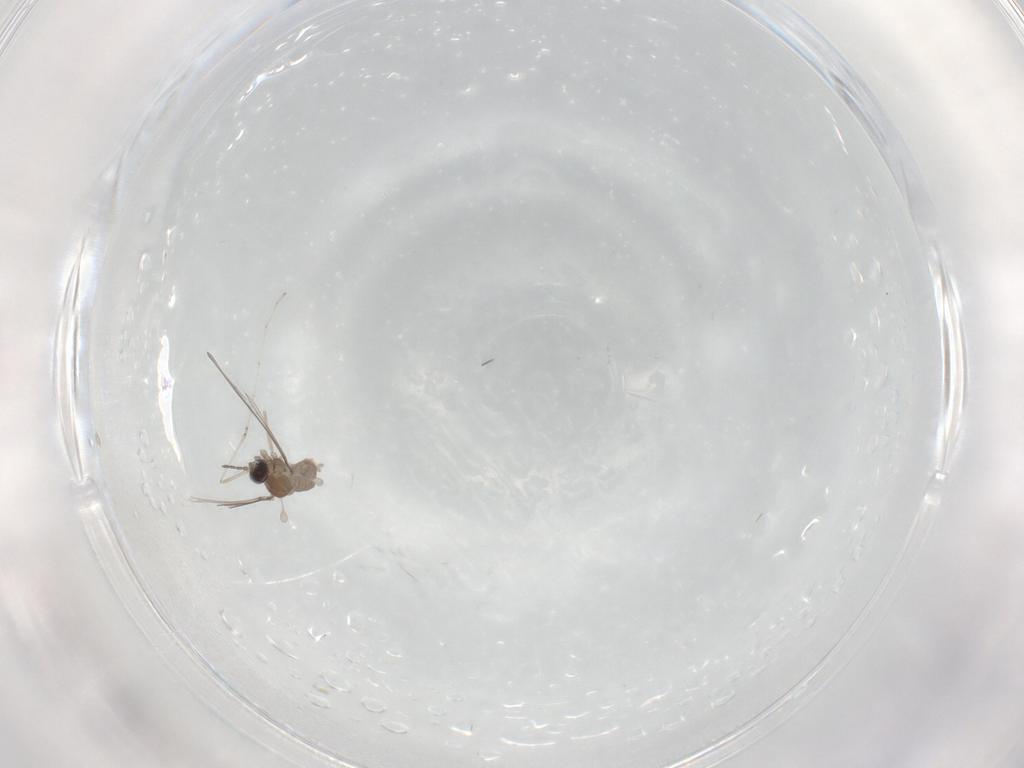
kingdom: Animalia
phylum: Arthropoda
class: Insecta
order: Diptera
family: Cecidomyiidae
